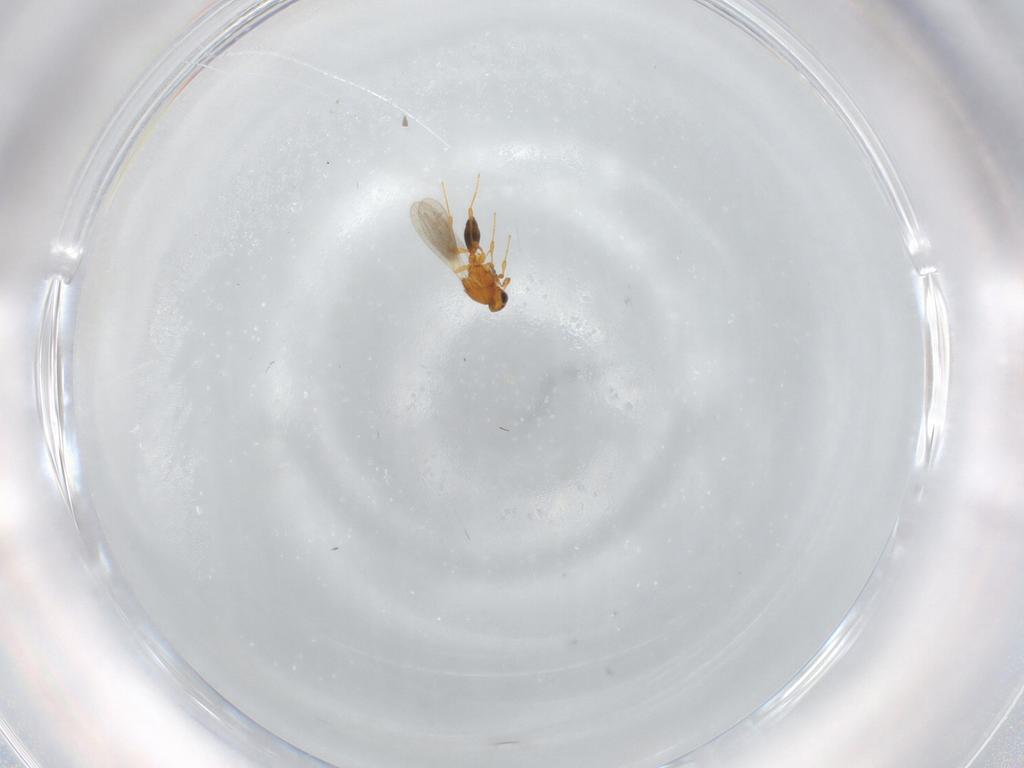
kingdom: Animalia
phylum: Arthropoda
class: Insecta
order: Hymenoptera
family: Platygastridae
